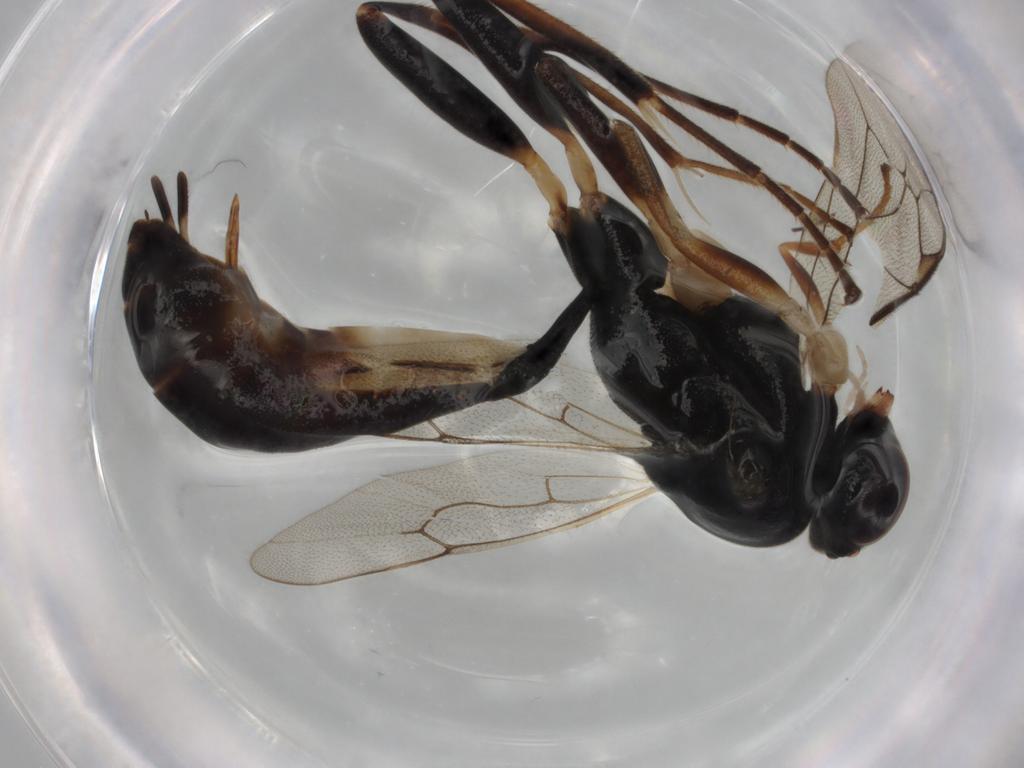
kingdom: Animalia
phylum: Arthropoda
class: Insecta
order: Hymenoptera
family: Ichneumonidae
